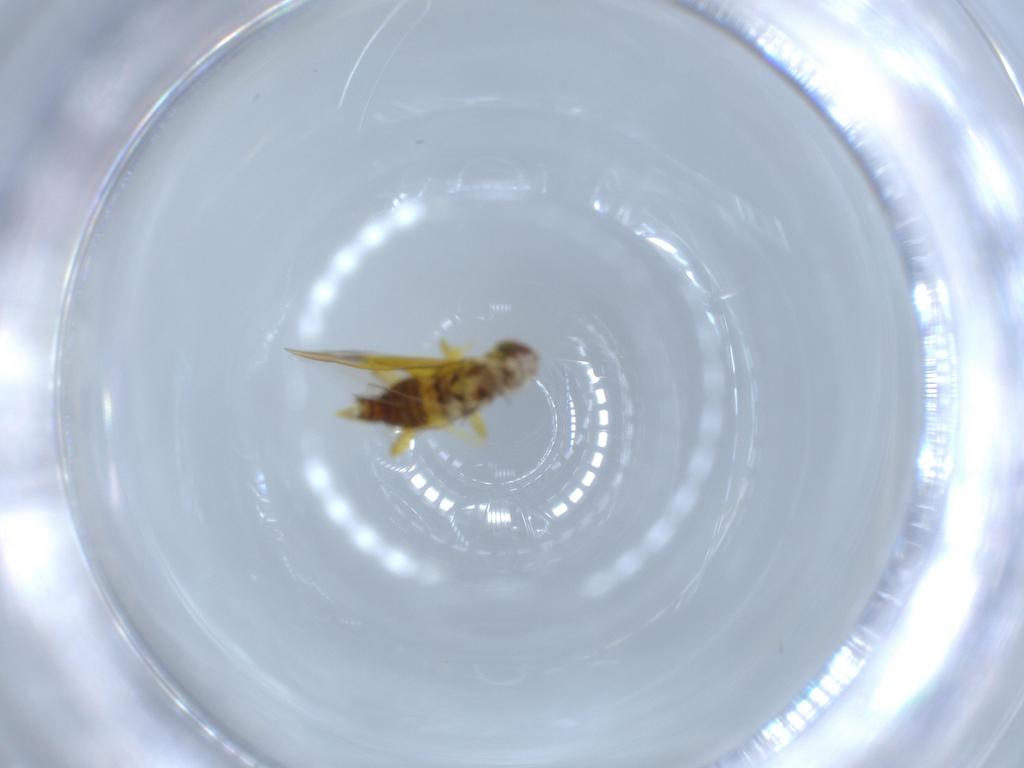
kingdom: Animalia
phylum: Arthropoda
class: Insecta
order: Hemiptera
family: Cicadellidae
